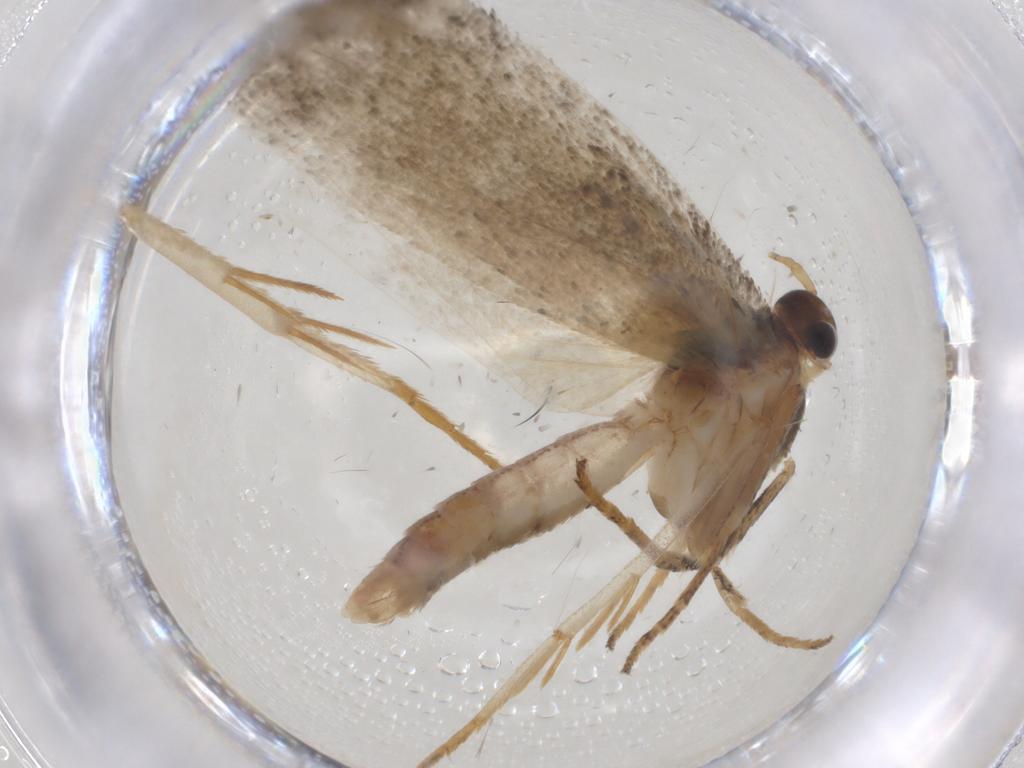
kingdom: Animalia
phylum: Arthropoda
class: Insecta
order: Lepidoptera
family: Depressariidae
